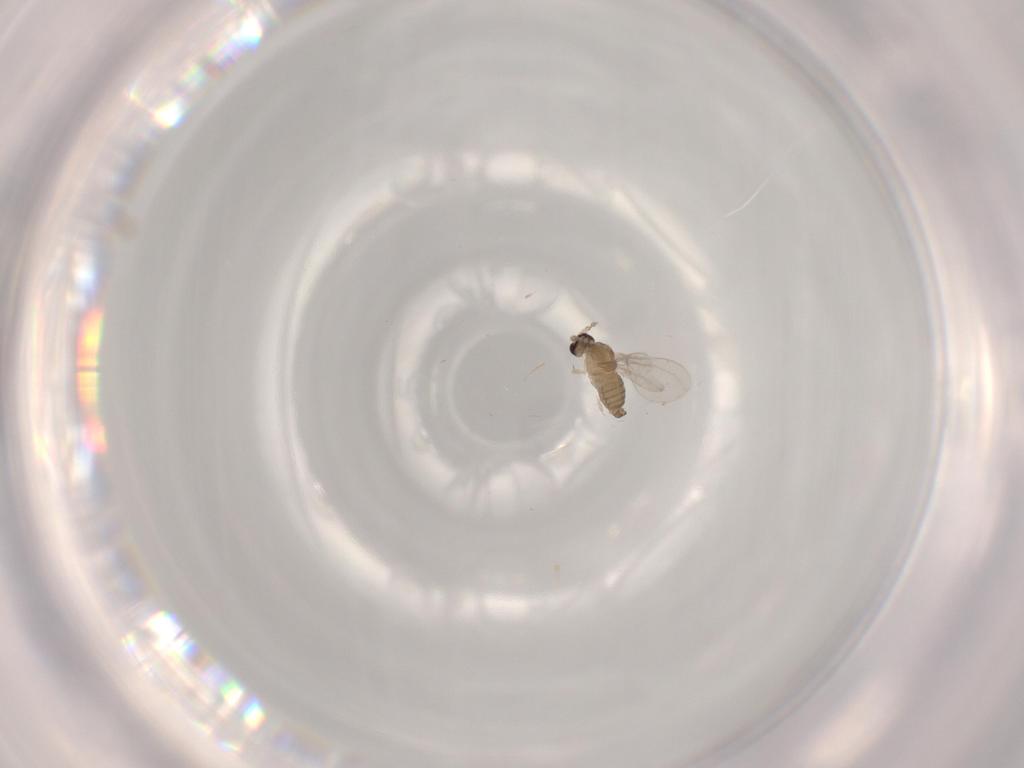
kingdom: Animalia
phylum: Arthropoda
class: Insecta
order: Diptera
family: Cecidomyiidae
